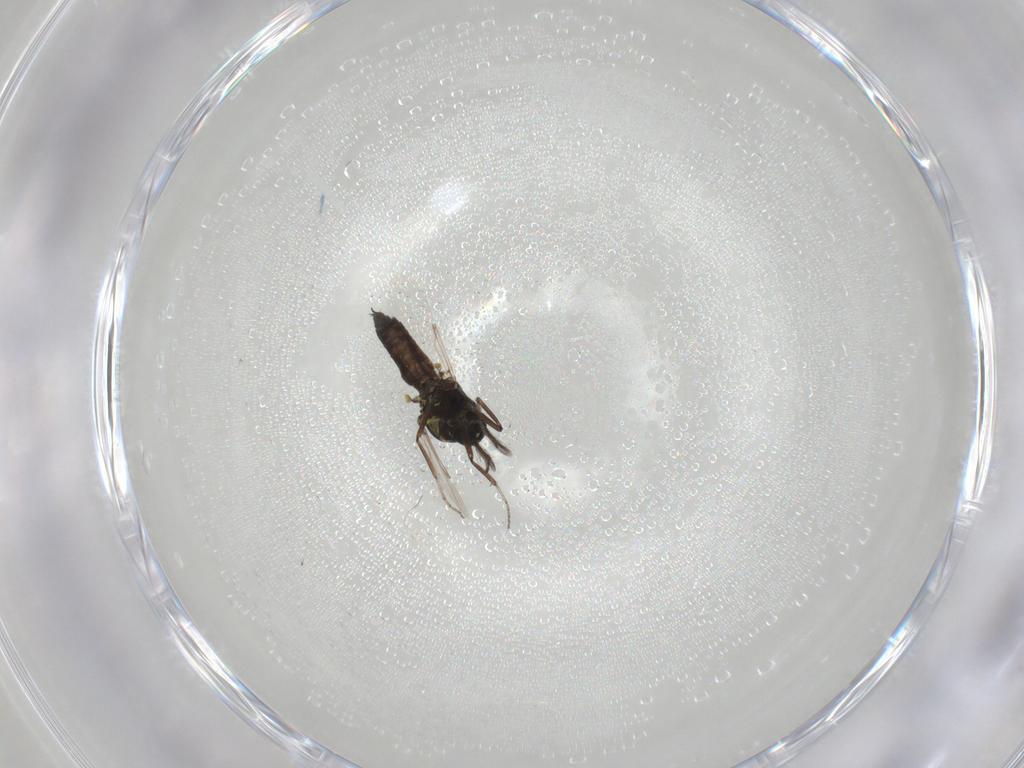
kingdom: Animalia
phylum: Arthropoda
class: Insecta
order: Diptera
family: Ceratopogonidae
